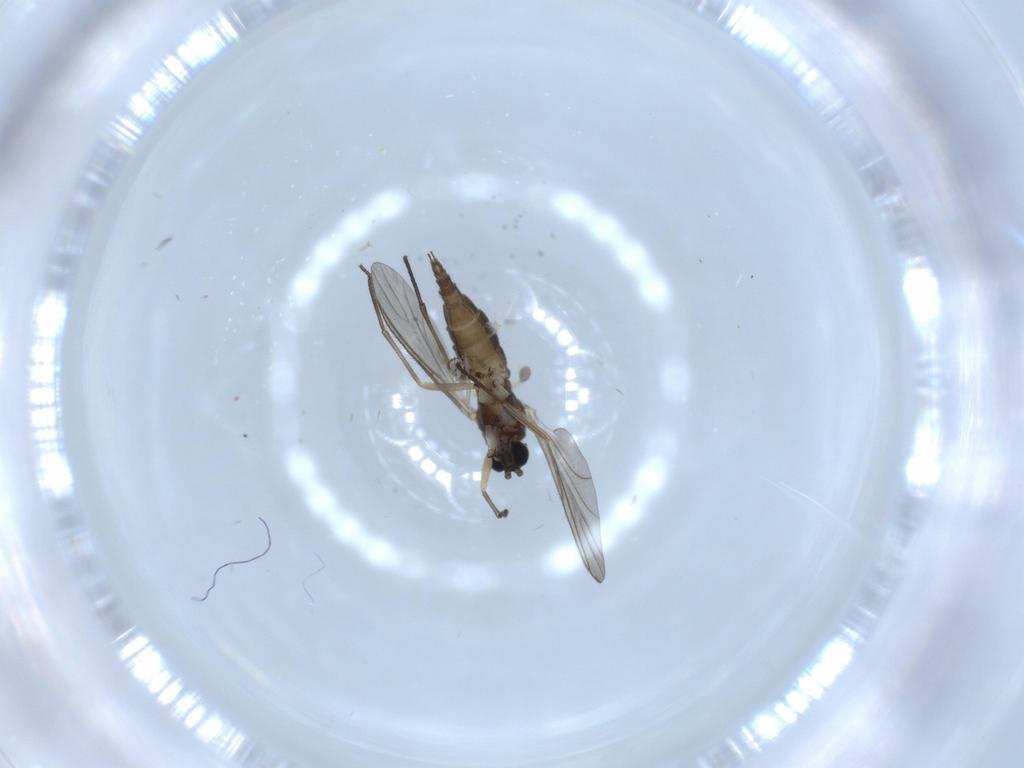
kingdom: Animalia
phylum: Arthropoda
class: Insecta
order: Diptera
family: Sciaridae
